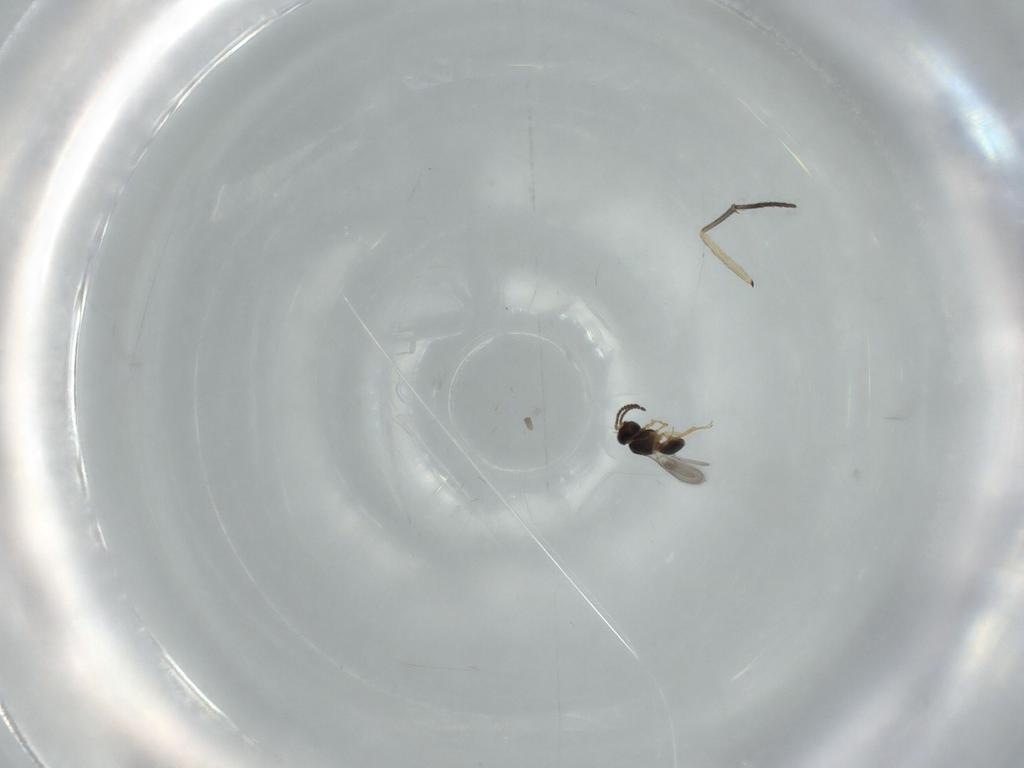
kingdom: Animalia
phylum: Arthropoda
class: Insecta
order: Hymenoptera
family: Scelionidae
